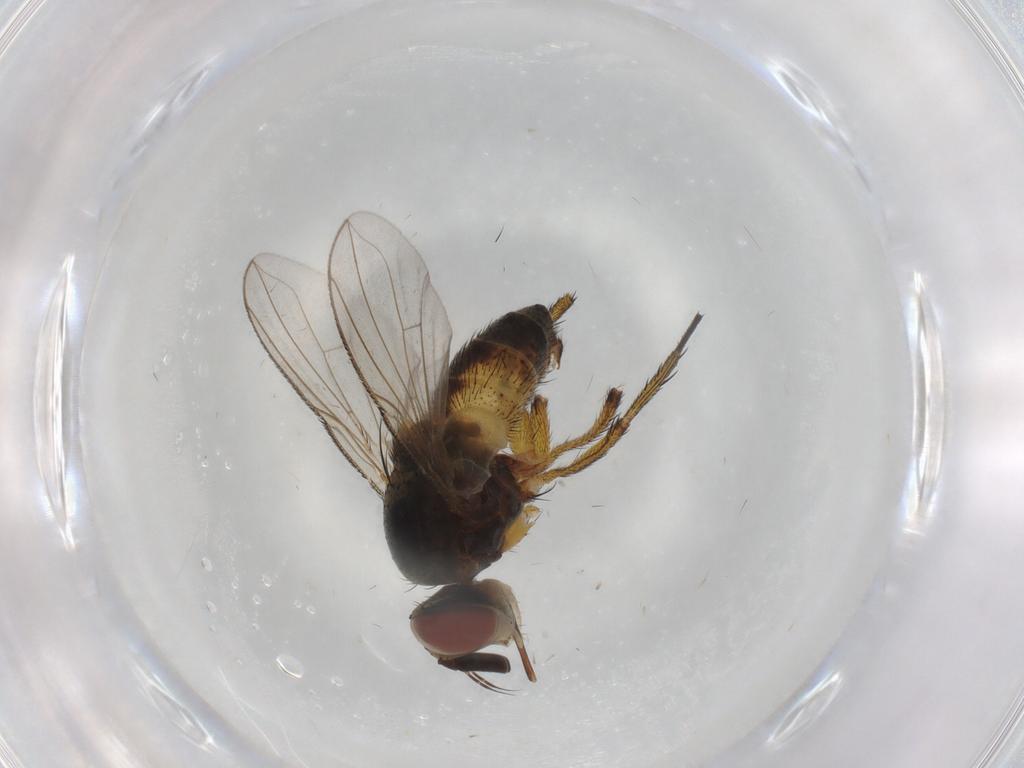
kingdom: Animalia
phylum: Arthropoda
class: Insecta
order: Diptera
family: Tachinidae
